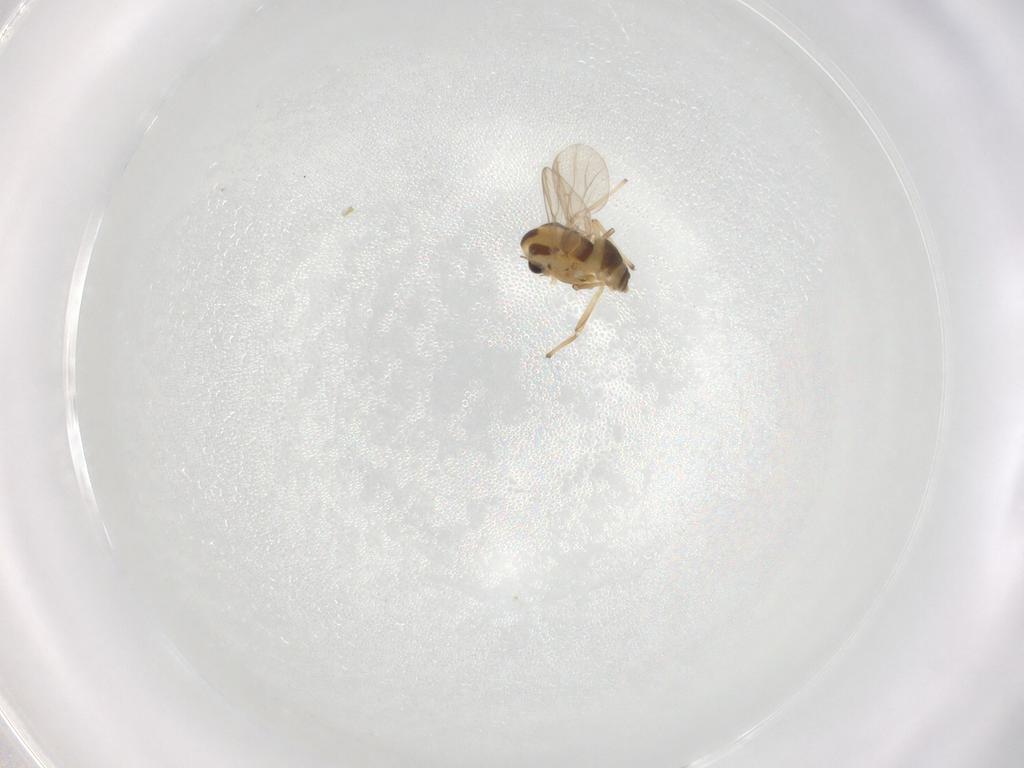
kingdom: Animalia
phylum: Arthropoda
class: Insecta
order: Diptera
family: Chironomidae
